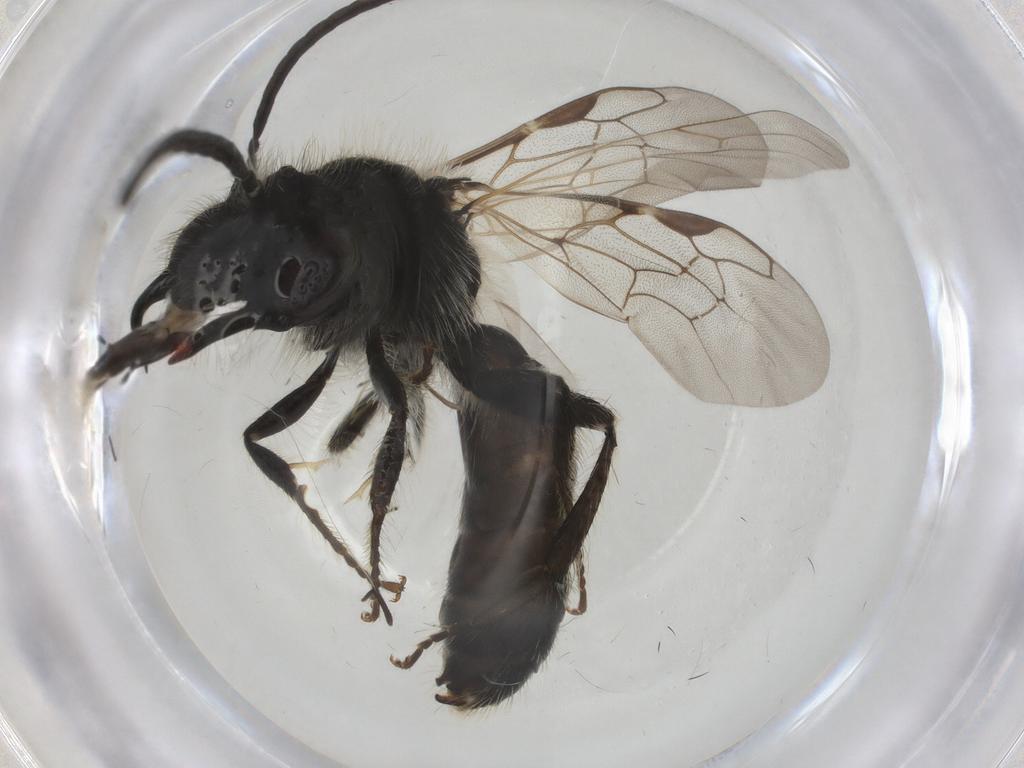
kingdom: Animalia
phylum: Arthropoda
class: Insecta
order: Hymenoptera
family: Andrenidae
